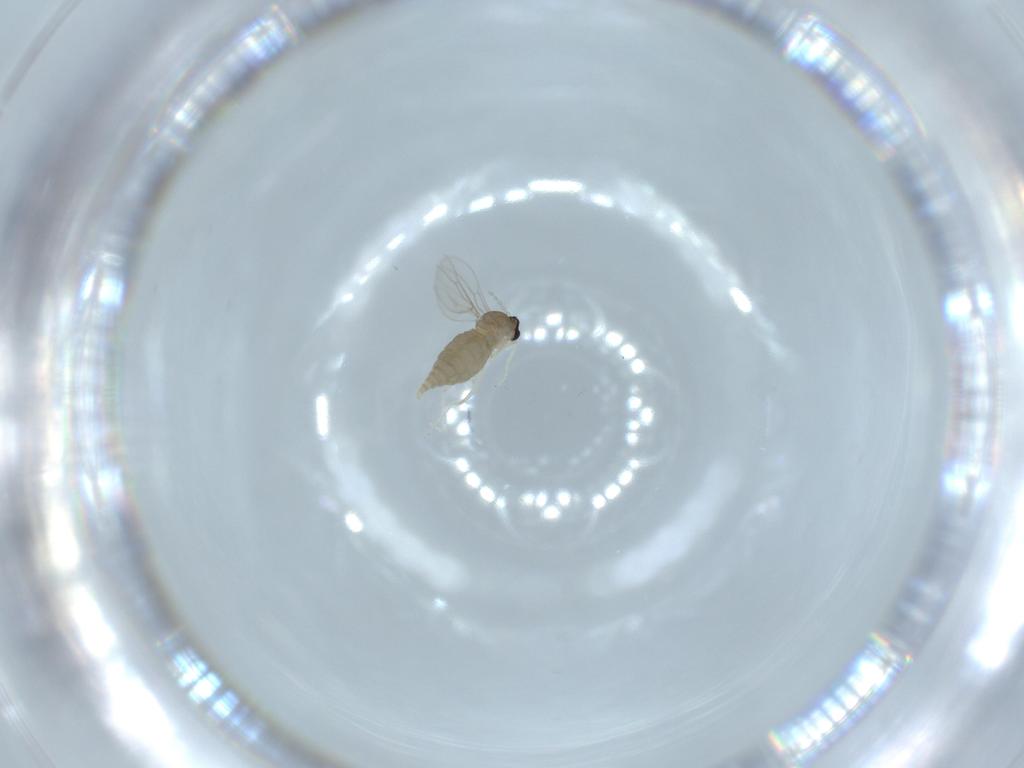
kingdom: Animalia
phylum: Arthropoda
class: Insecta
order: Diptera
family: Cecidomyiidae
